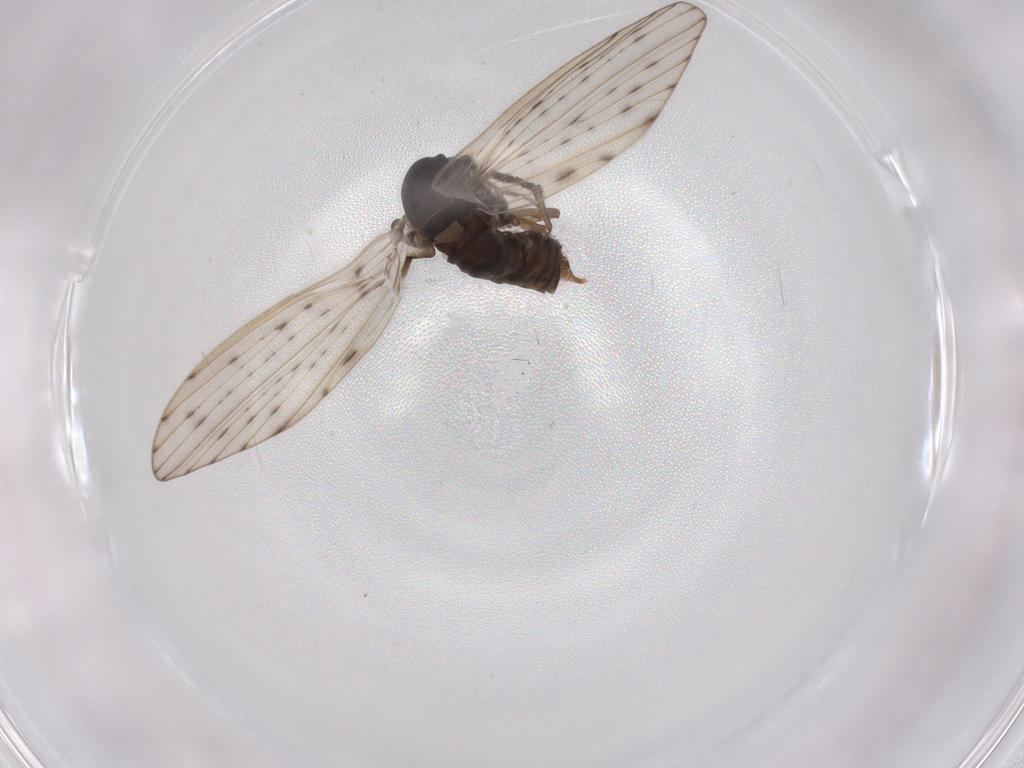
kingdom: Animalia
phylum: Arthropoda
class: Insecta
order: Diptera
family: Psychodidae
